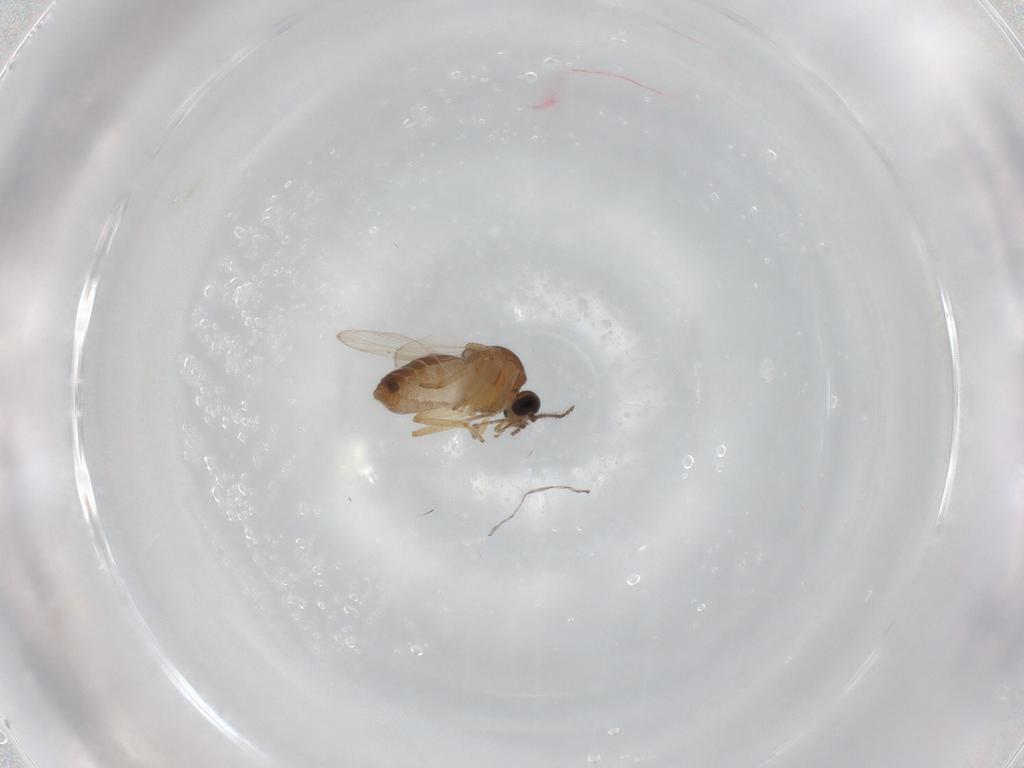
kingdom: Animalia
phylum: Arthropoda
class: Insecta
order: Diptera
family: Ceratopogonidae
